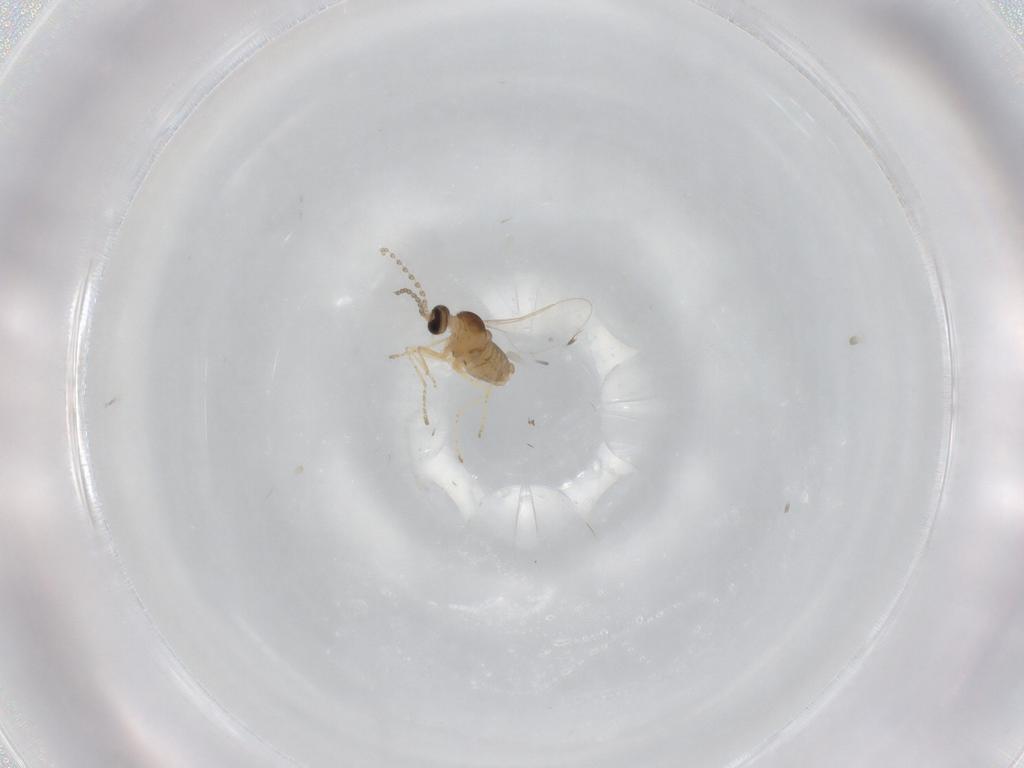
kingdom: Animalia
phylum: Arthropoda
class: Insecta
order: Diptera
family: Cecidomyiidae
